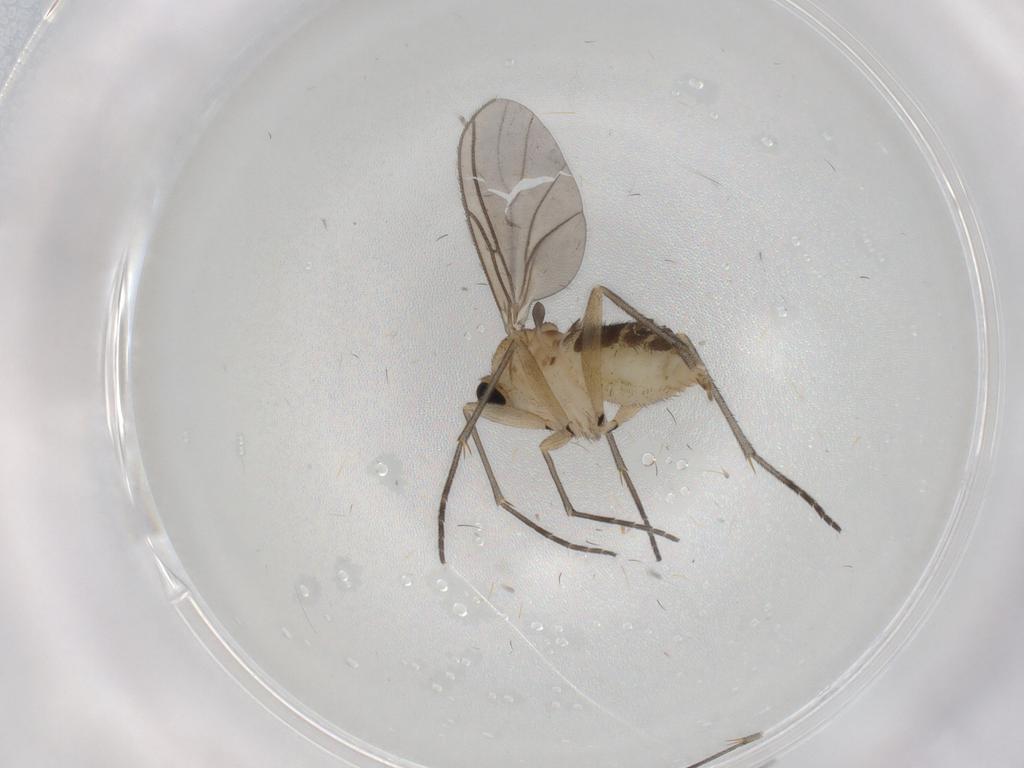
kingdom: Animalia
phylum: Arthropoda
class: Insecta
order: Diptera
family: Sciaridae
